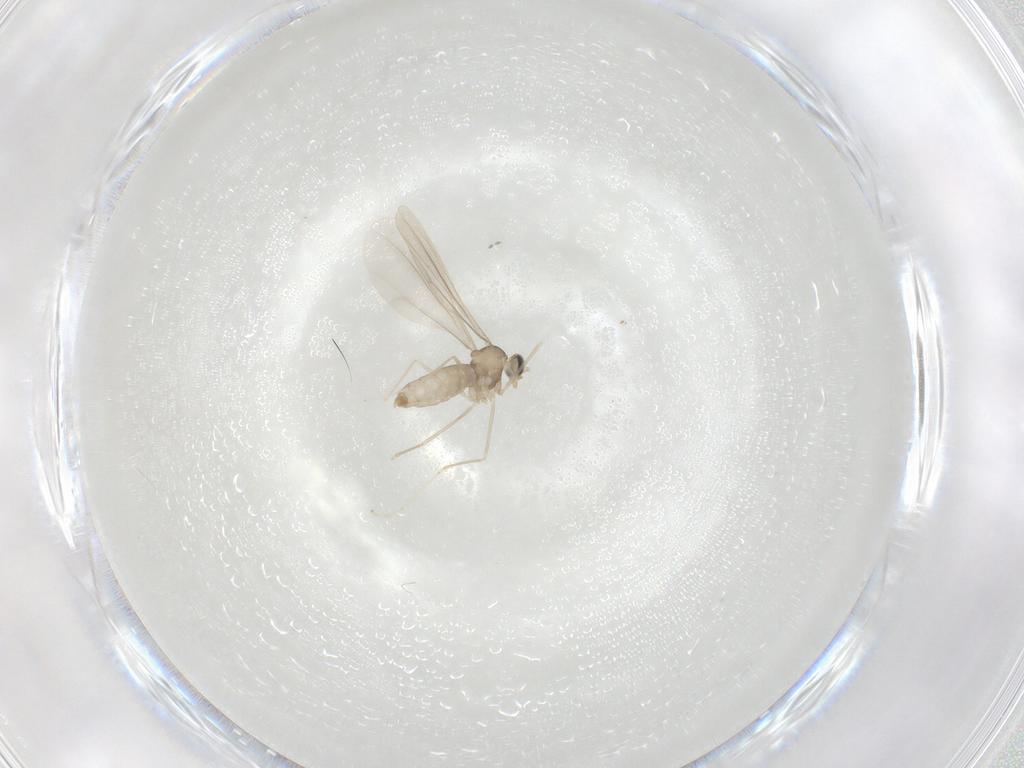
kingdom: Animalia
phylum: Arthropoda
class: Insecta
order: Diptera
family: Cecidomyiidae
